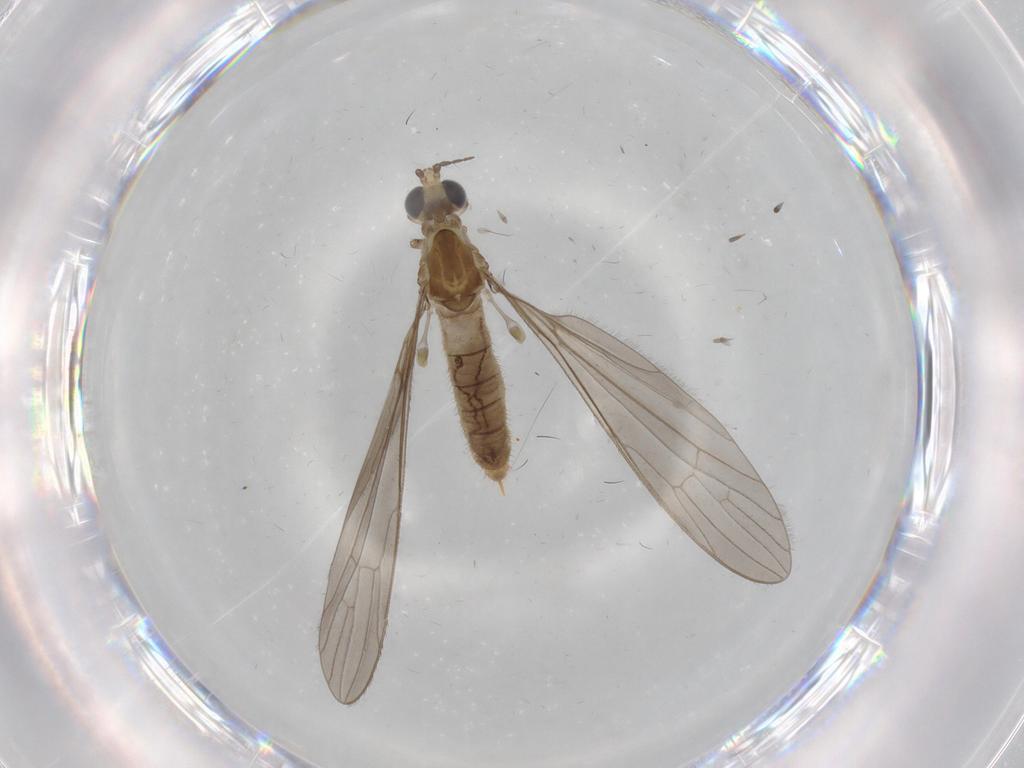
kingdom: Animalia
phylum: Arthropoda
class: Insecta
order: Diptera
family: Limoniidae
